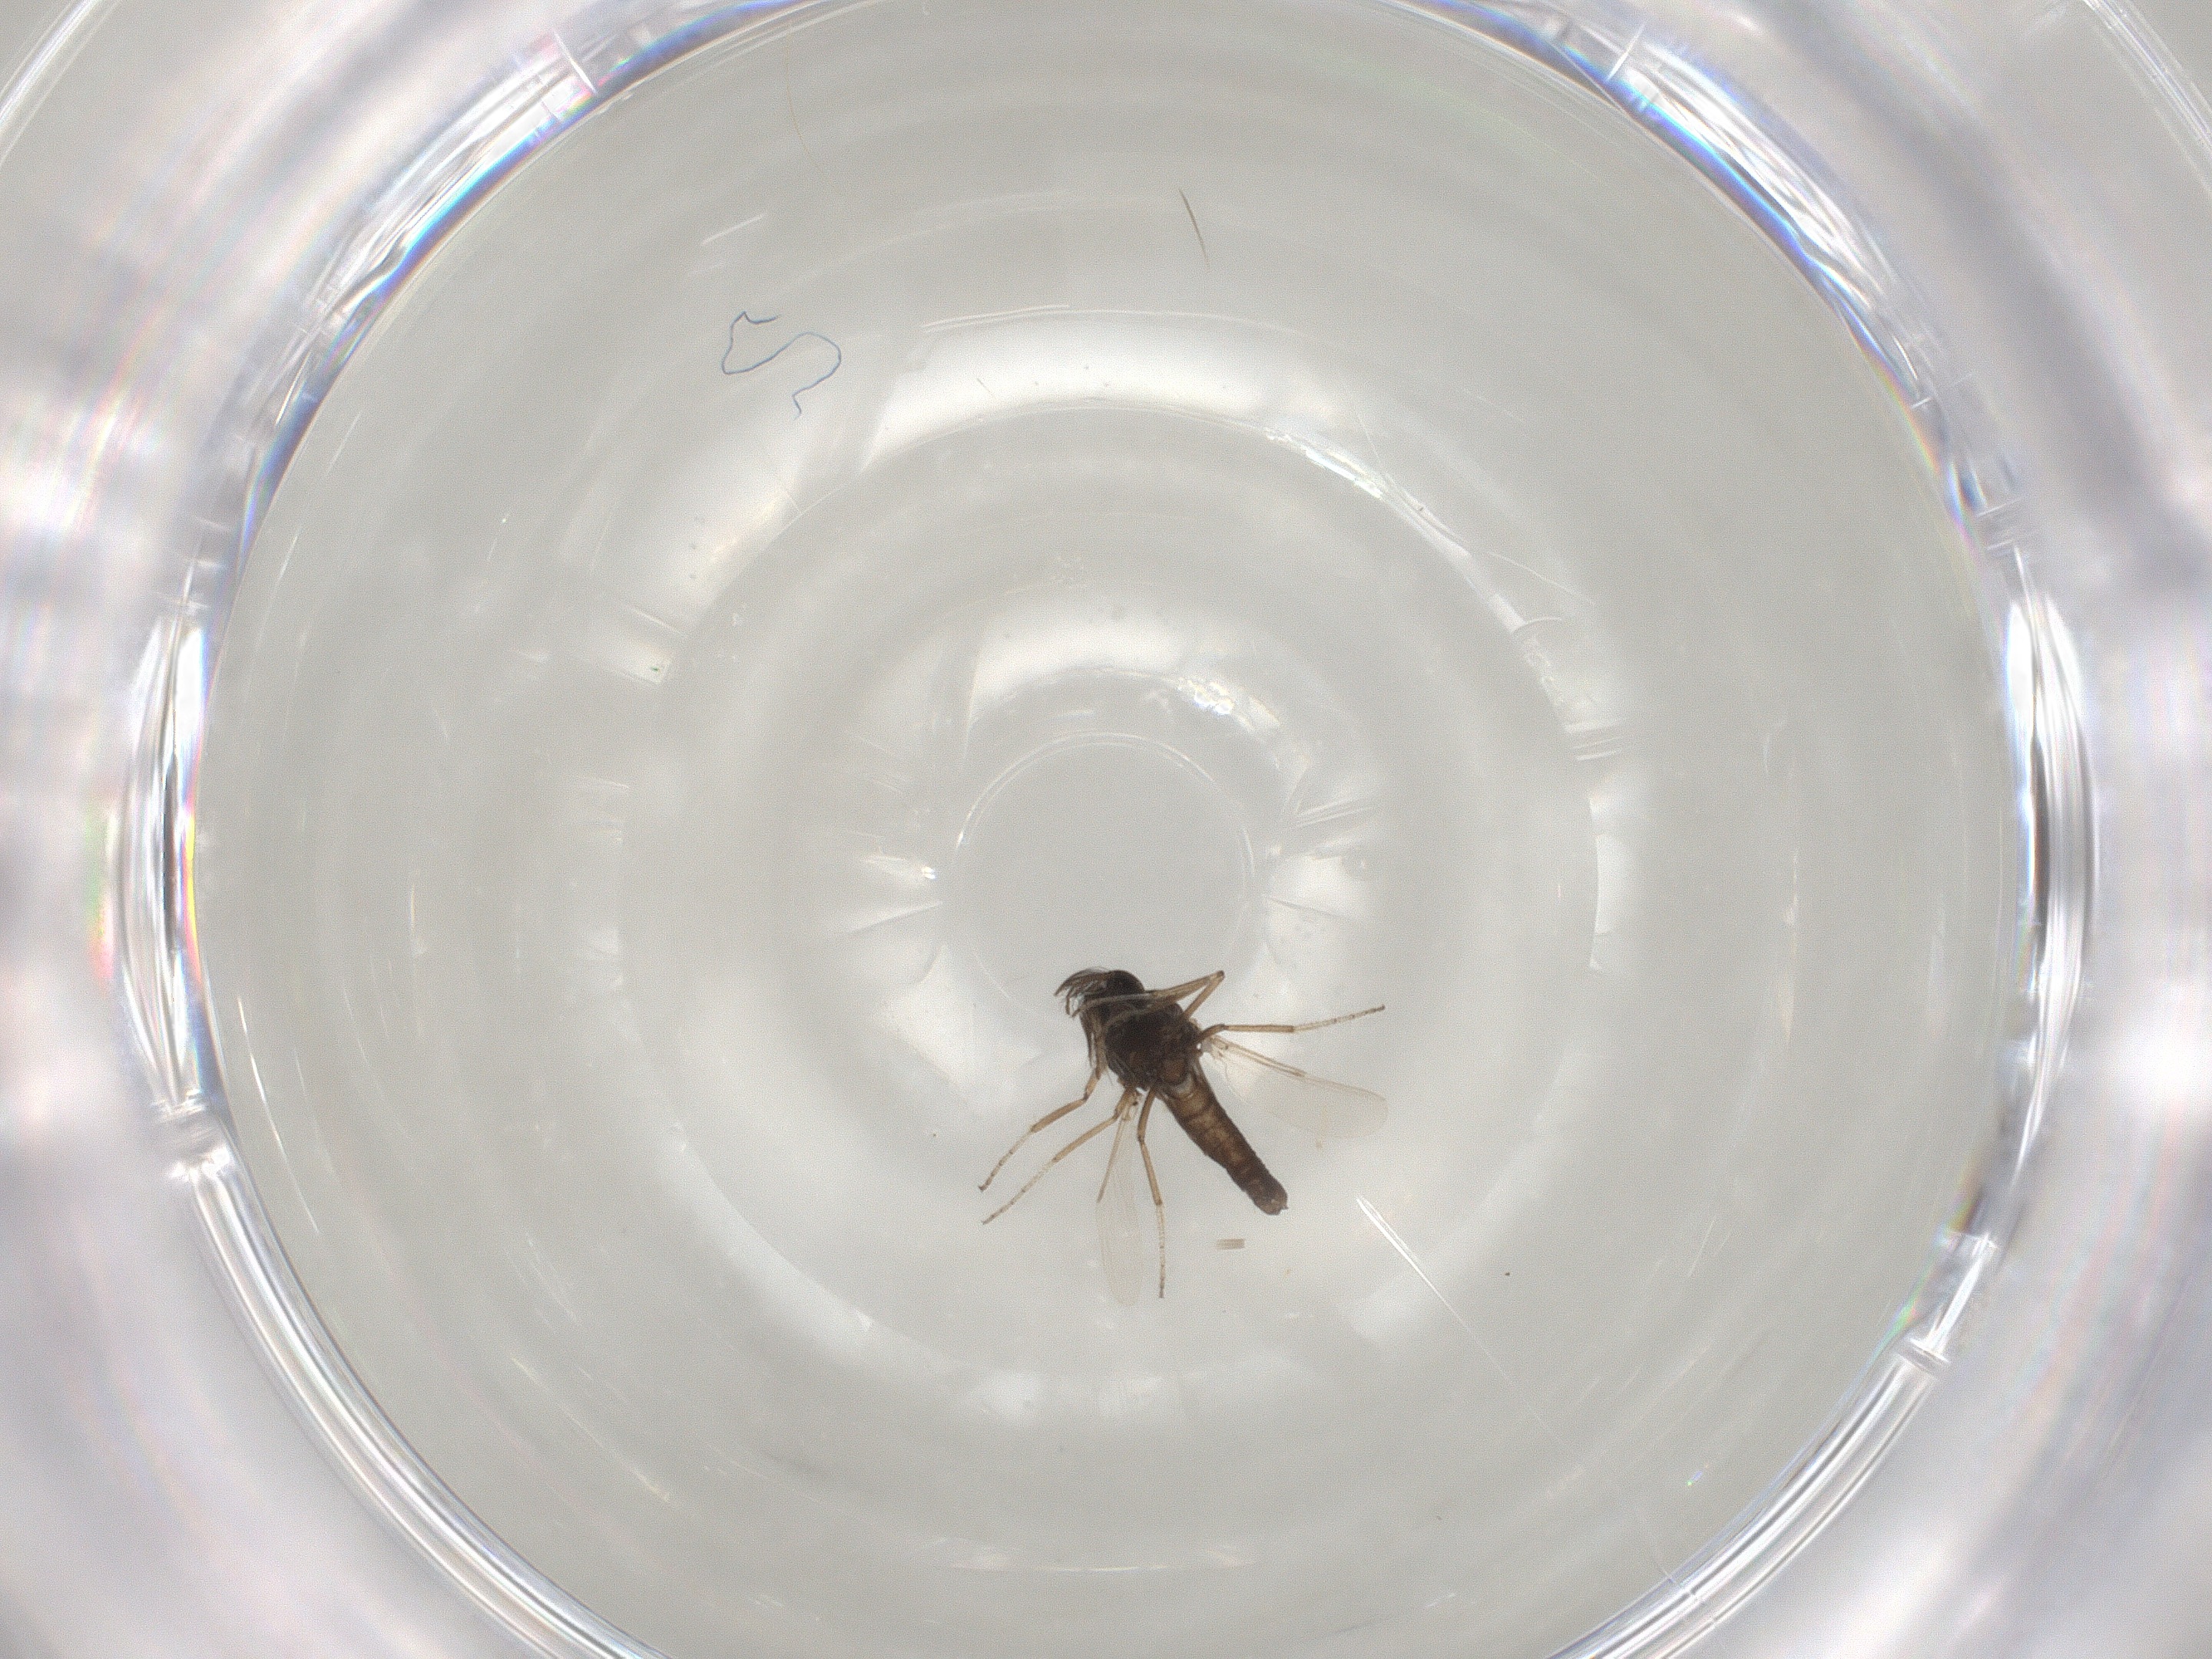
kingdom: Animalia
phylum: Arthropoda
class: Insecta
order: Diptera
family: Ceratopogonidae
